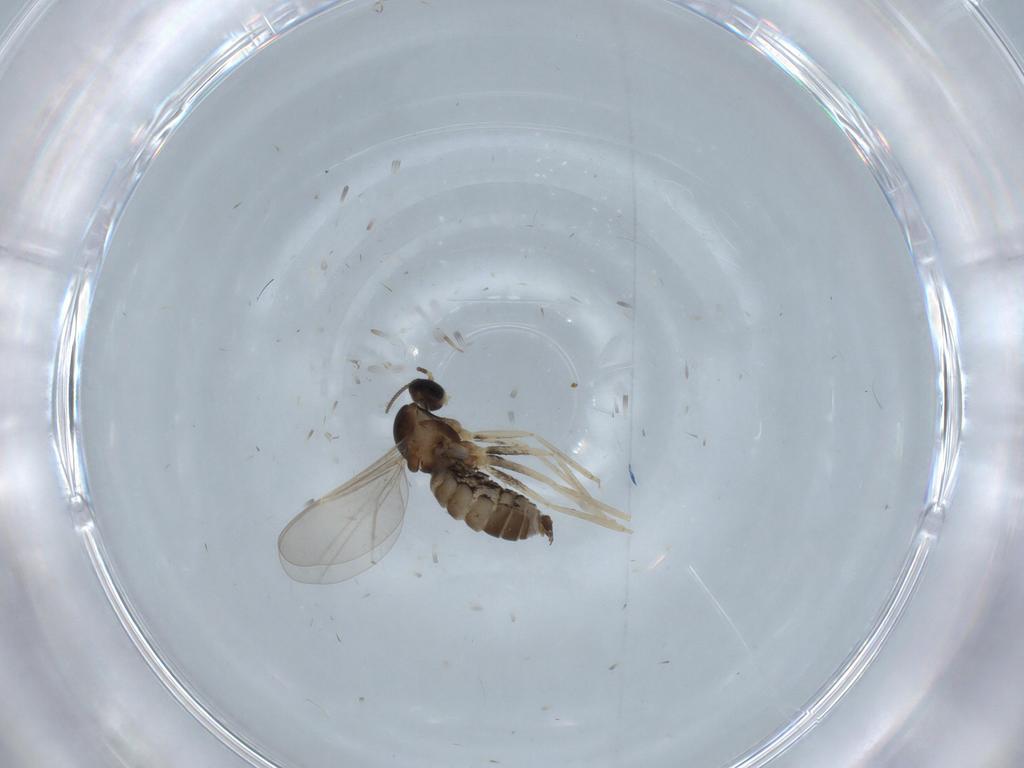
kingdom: Animalia
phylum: Arthropoda
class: Insecta
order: Diptera
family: Cecidomyiidae
